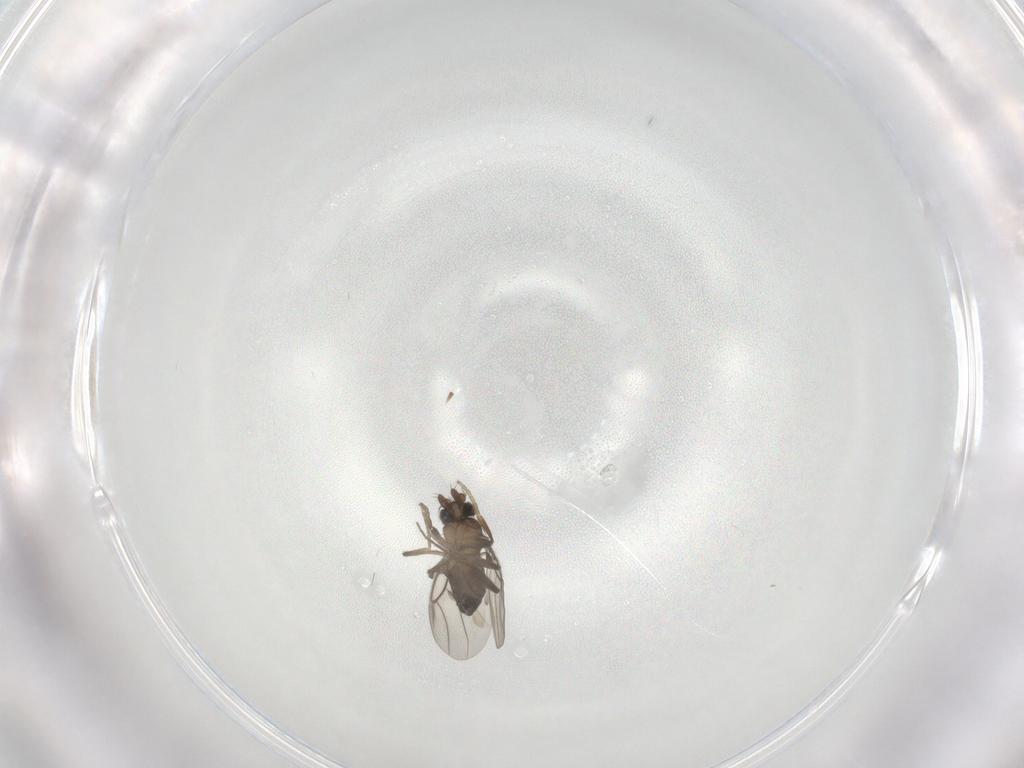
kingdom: Animalia
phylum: Arthropoda
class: Insecta
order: Diptera
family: Phoridae
